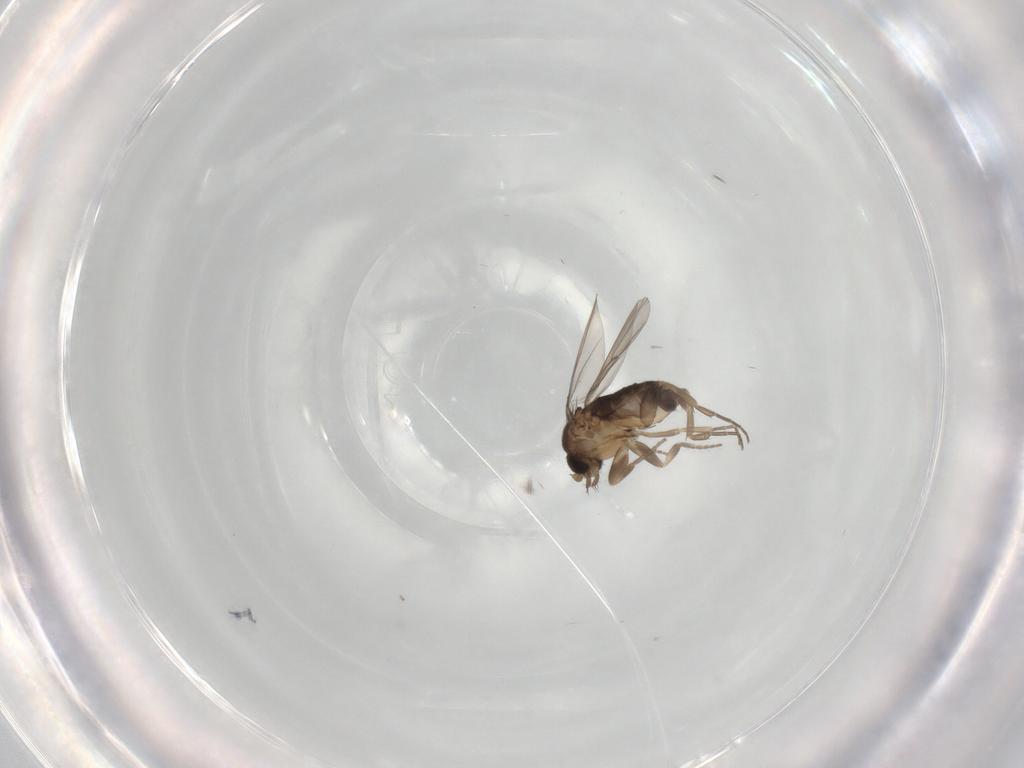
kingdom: Animalia
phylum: Arthropoda
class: Insecta
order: Diptera
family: Phoridae
